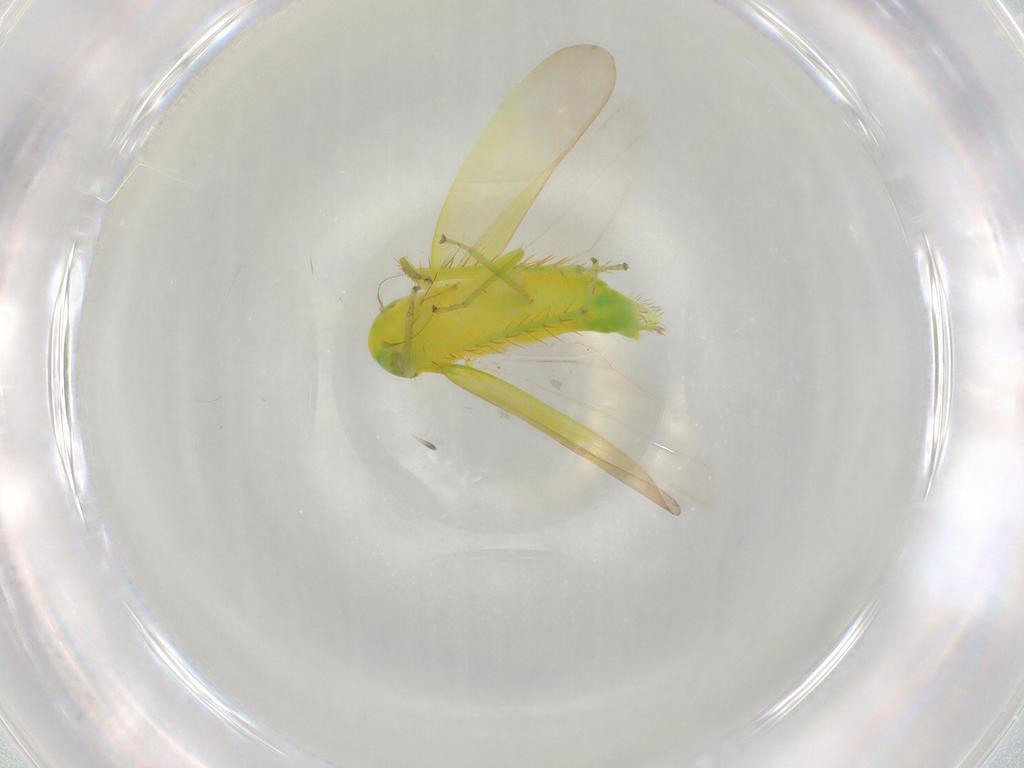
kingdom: Animalia
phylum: Arthropoda
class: Insecta
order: Hemiptera
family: Cicadellidae
